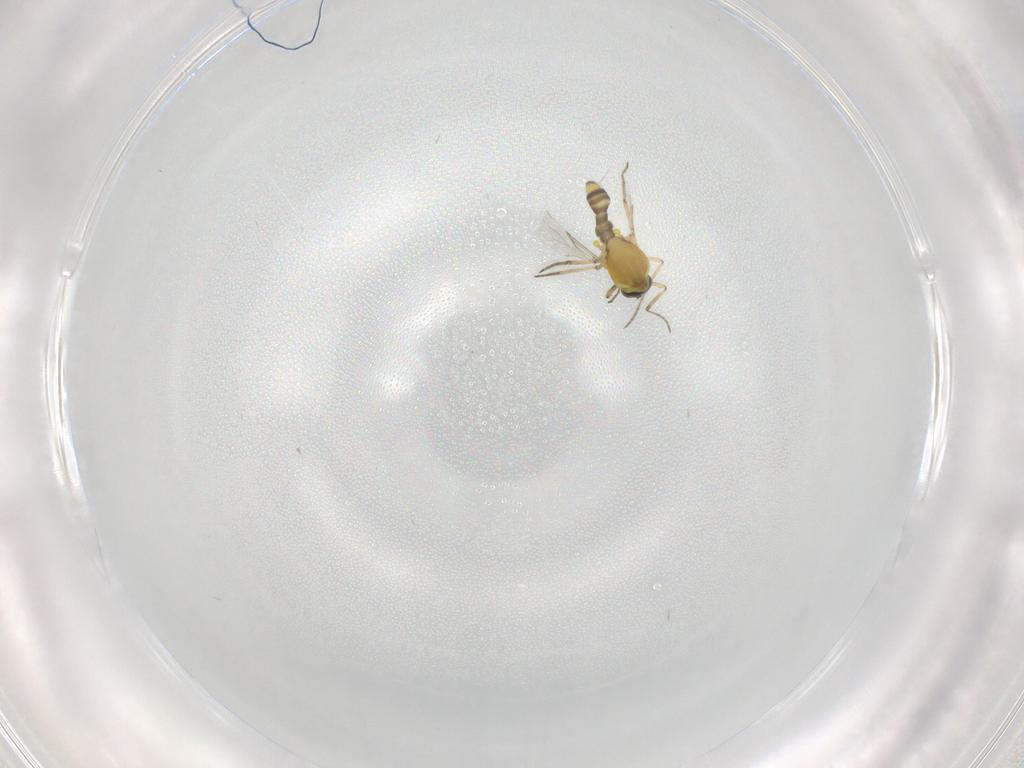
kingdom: Animalia
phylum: Arthropoda
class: Insecta
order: Diptera
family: Ceratopogonidae
